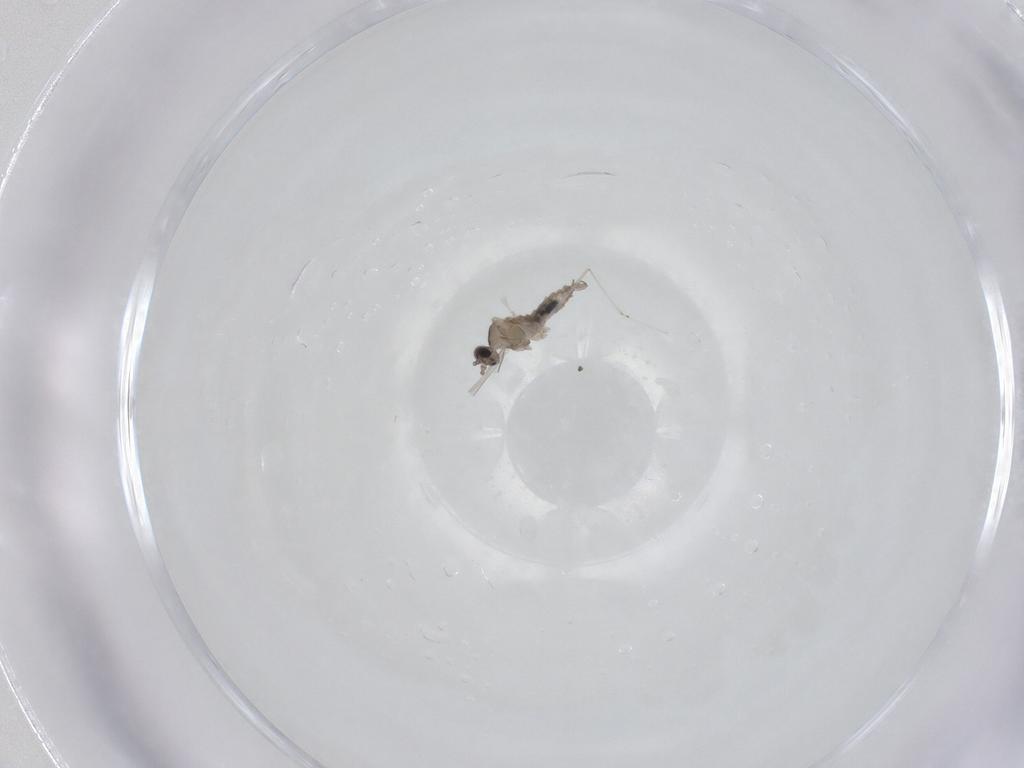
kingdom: Animalia
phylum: Arthropoda
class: Insecta
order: Diptera
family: Cecidomyiidae
